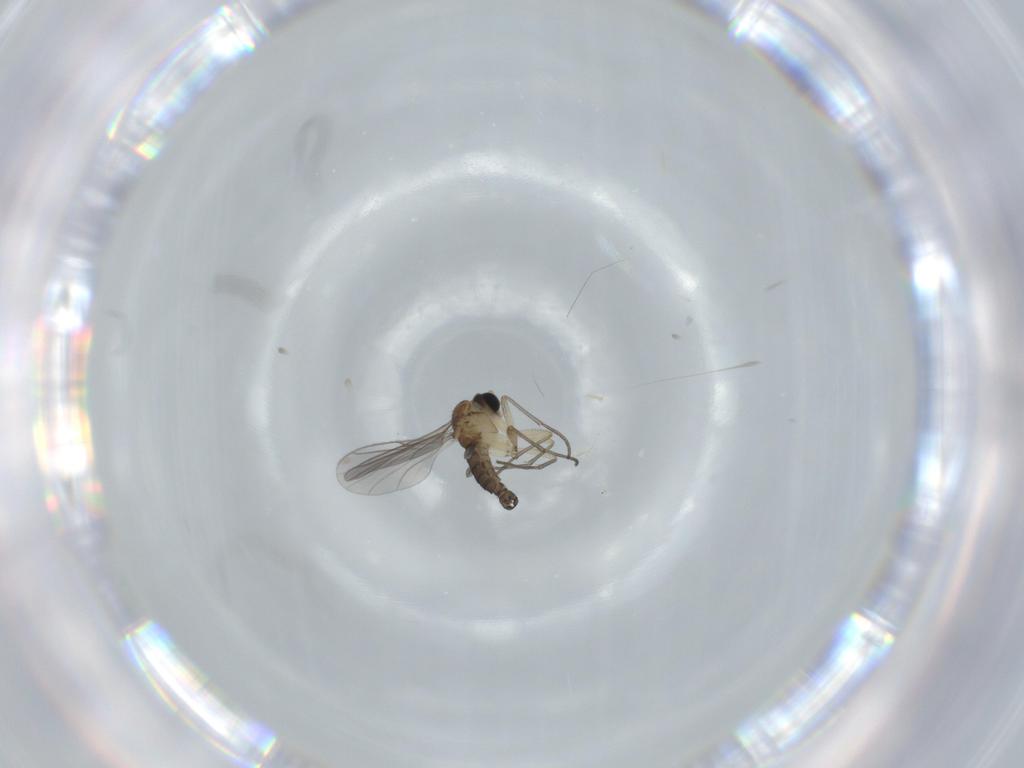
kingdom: Animalia
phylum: Arthropoda
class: Insecta
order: Diptera
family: Sciaridae
